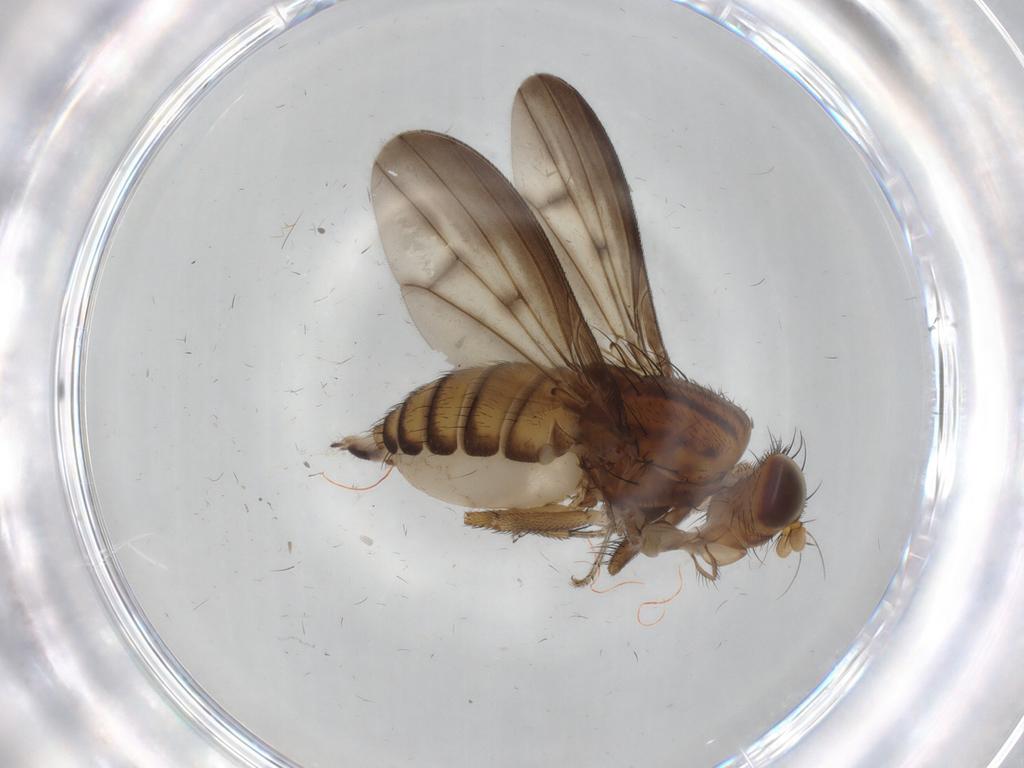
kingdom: Animalia
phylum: Arthropoda
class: Insecta
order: Diptera
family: Lauxaniidae
